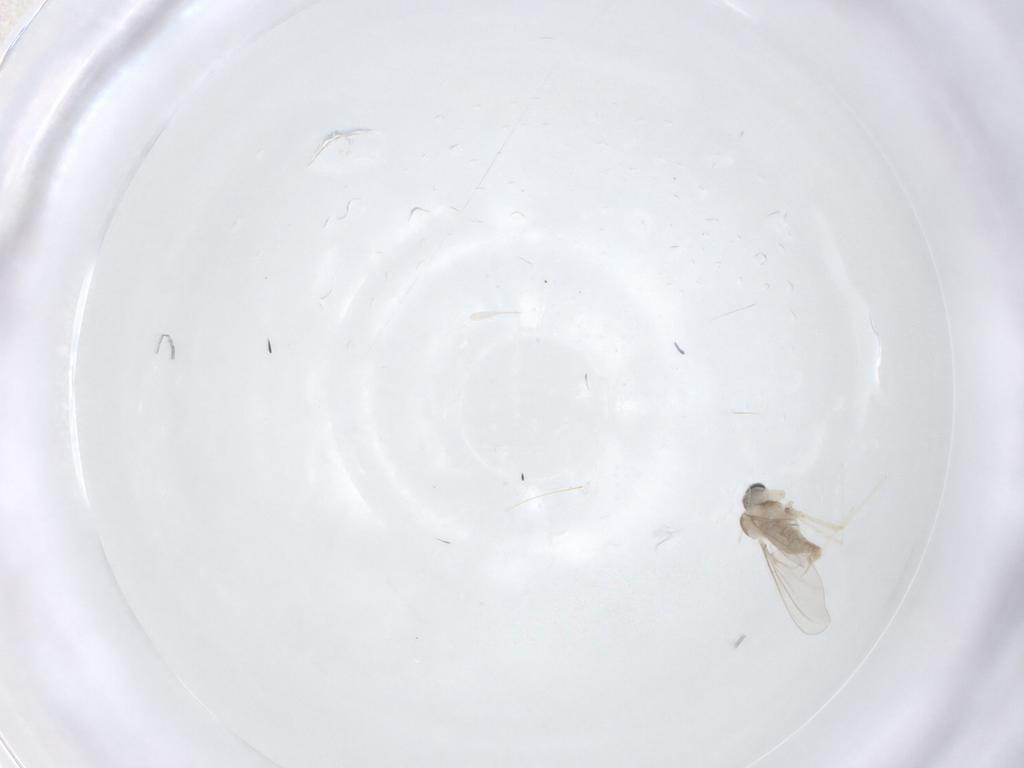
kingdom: Animalia
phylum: Arthropoda
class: Insecta
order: Diptera
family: Cecidomyiidae
